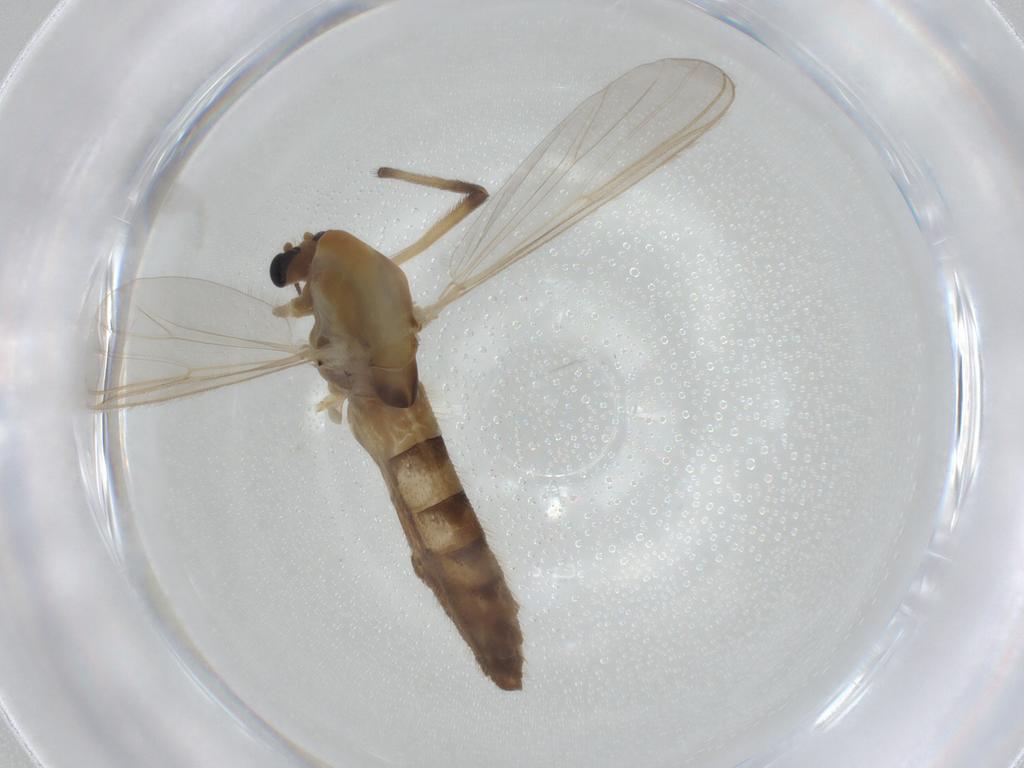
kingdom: Animalia
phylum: Arthropoda
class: Insecta
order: Diptera
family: Chironomidae
